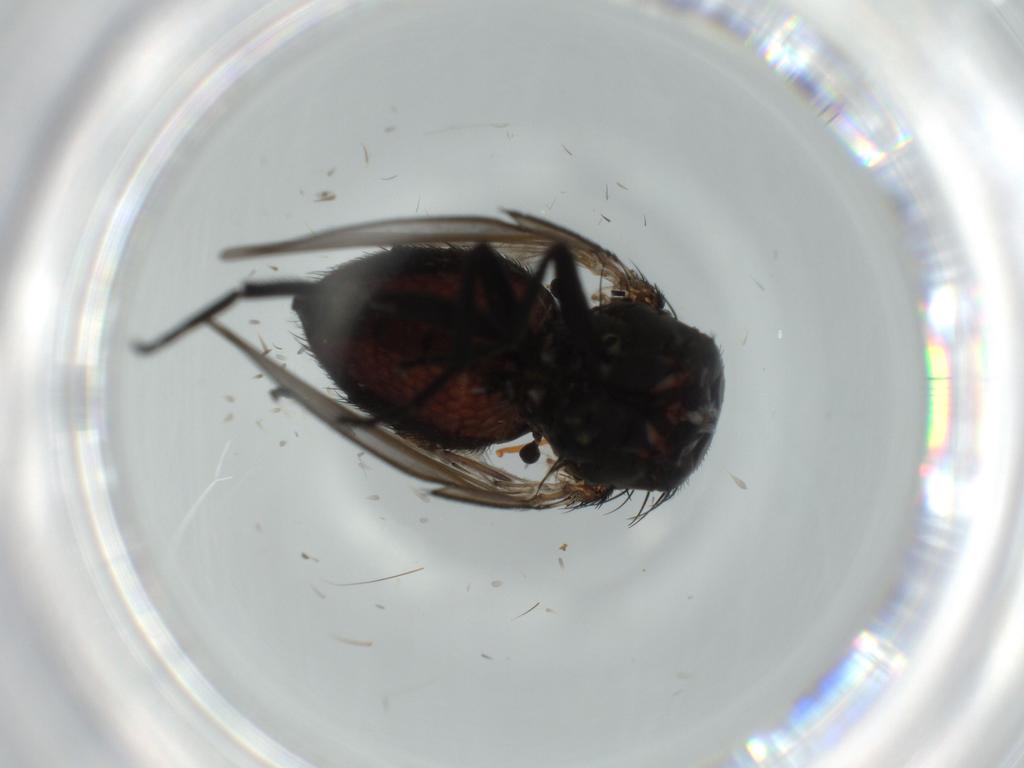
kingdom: Animalia
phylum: Arthropoda
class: Insecta
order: Diptera
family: Milichiidae
